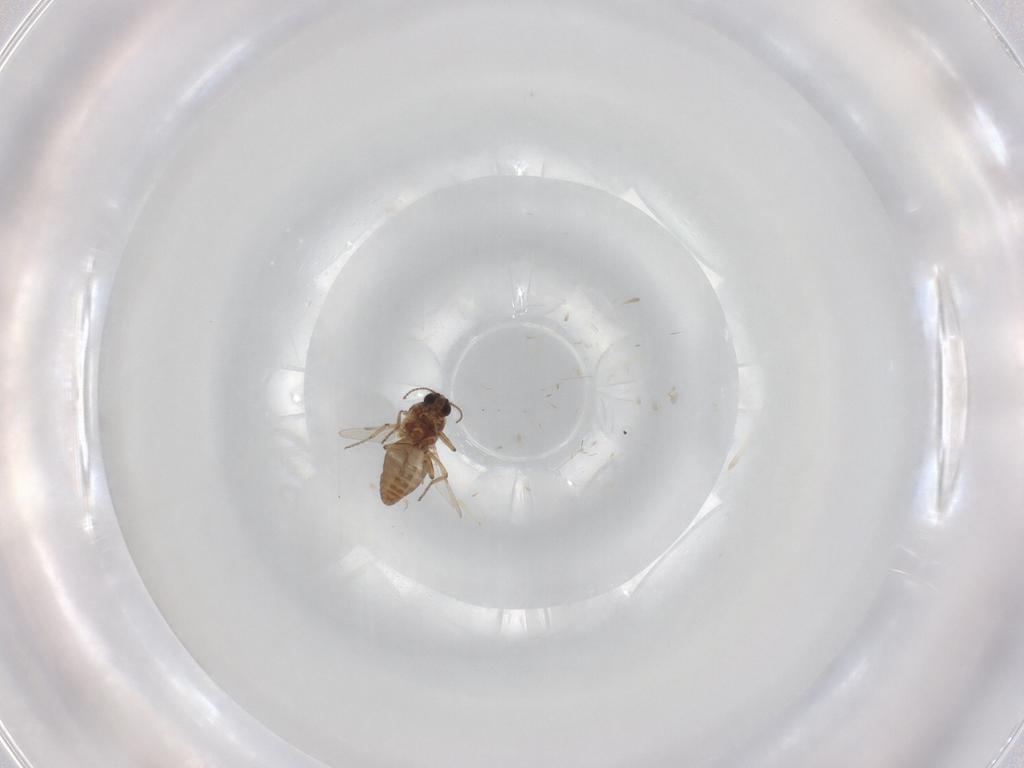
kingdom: Animalia
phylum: Arthropoda
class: Insecta
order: Diptera
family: Ceratopogonidae
